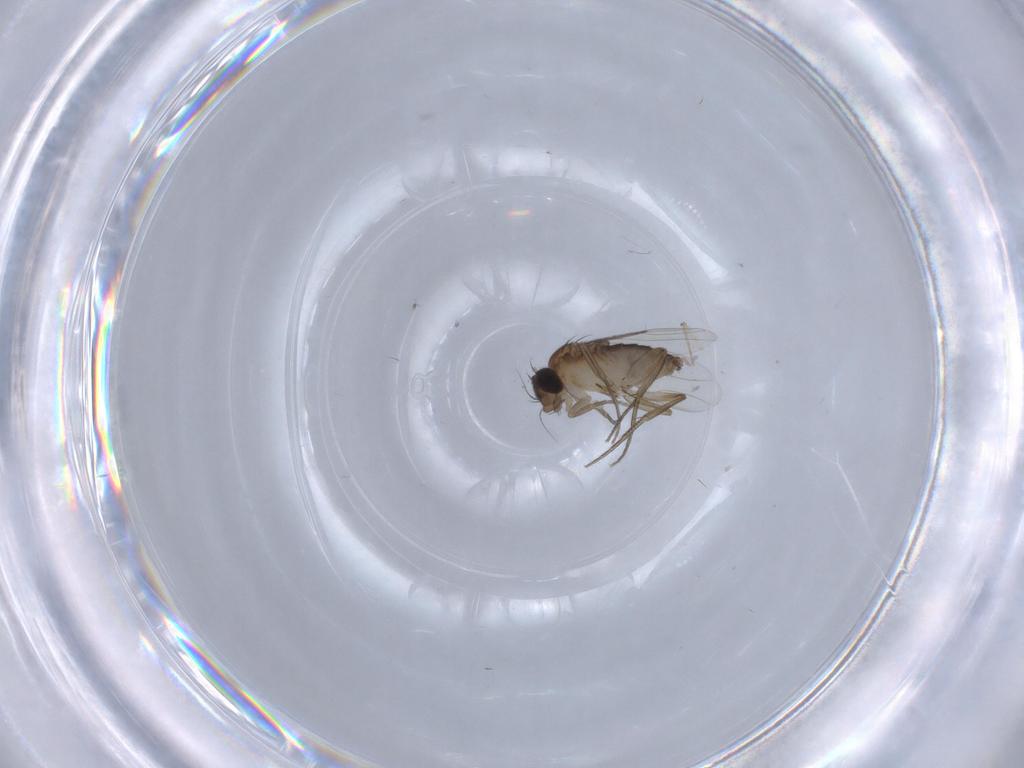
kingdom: Animalia
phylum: Arthropoda
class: Insecta
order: Diptera
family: Phoridae
